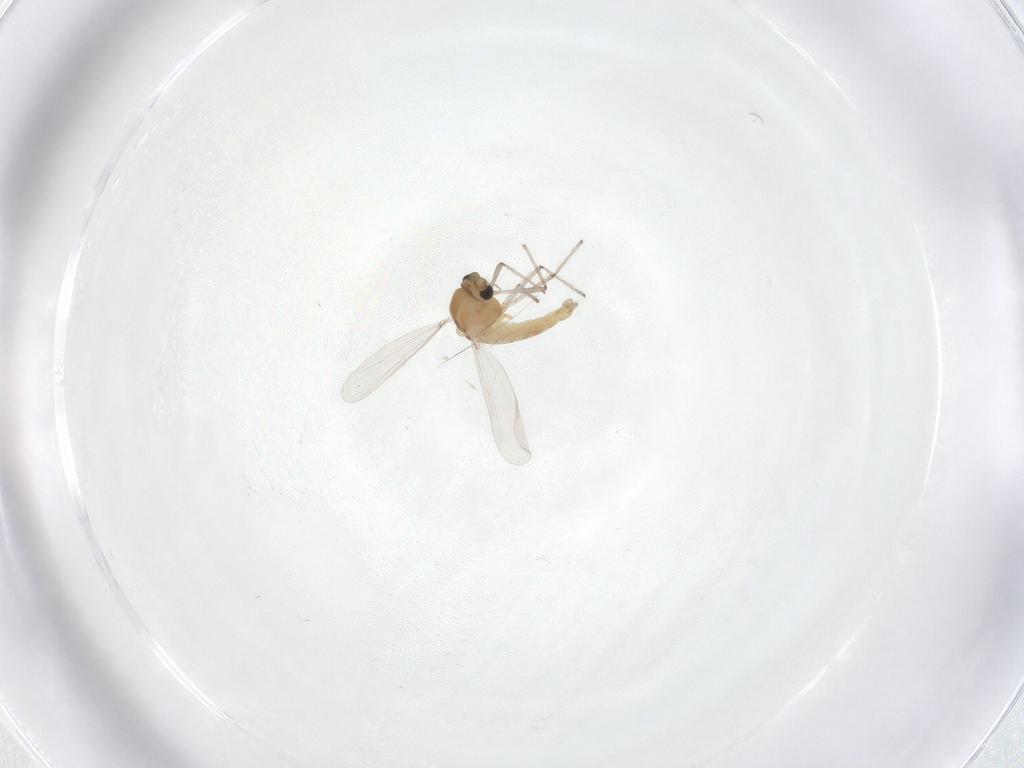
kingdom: Animalia
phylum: Arthropoda
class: Insecta
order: Diptera
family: Chironomidae
